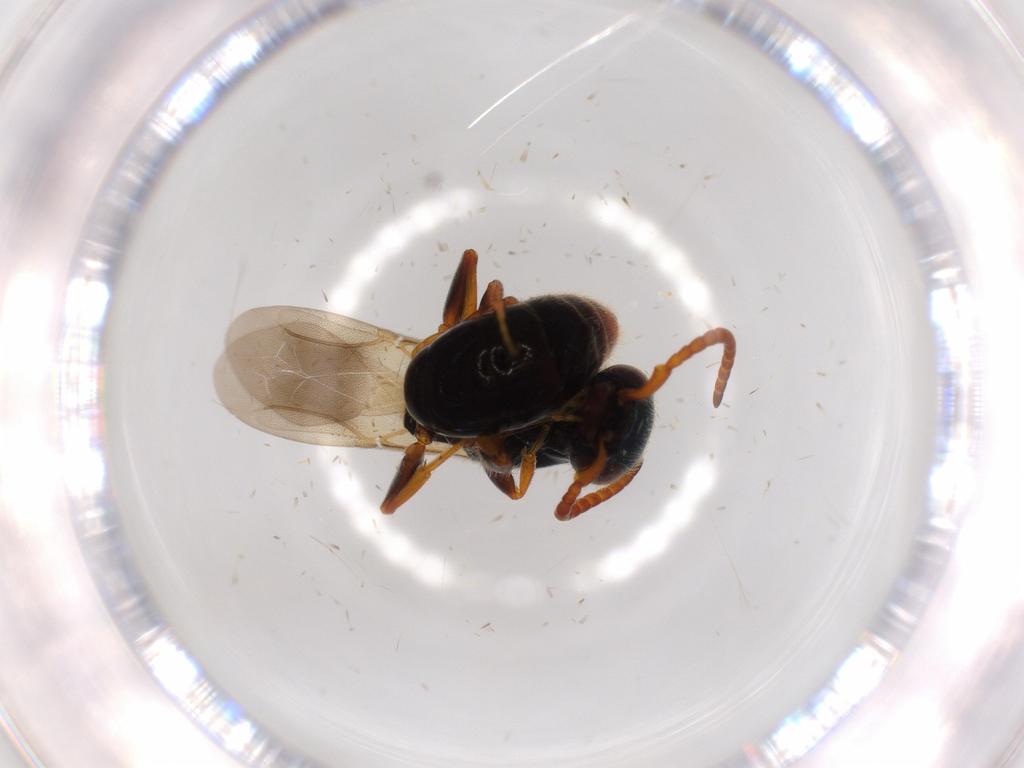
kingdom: Animalia
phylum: Arthropoda
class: Insecta
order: Hymenoptera
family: Bethylidae
